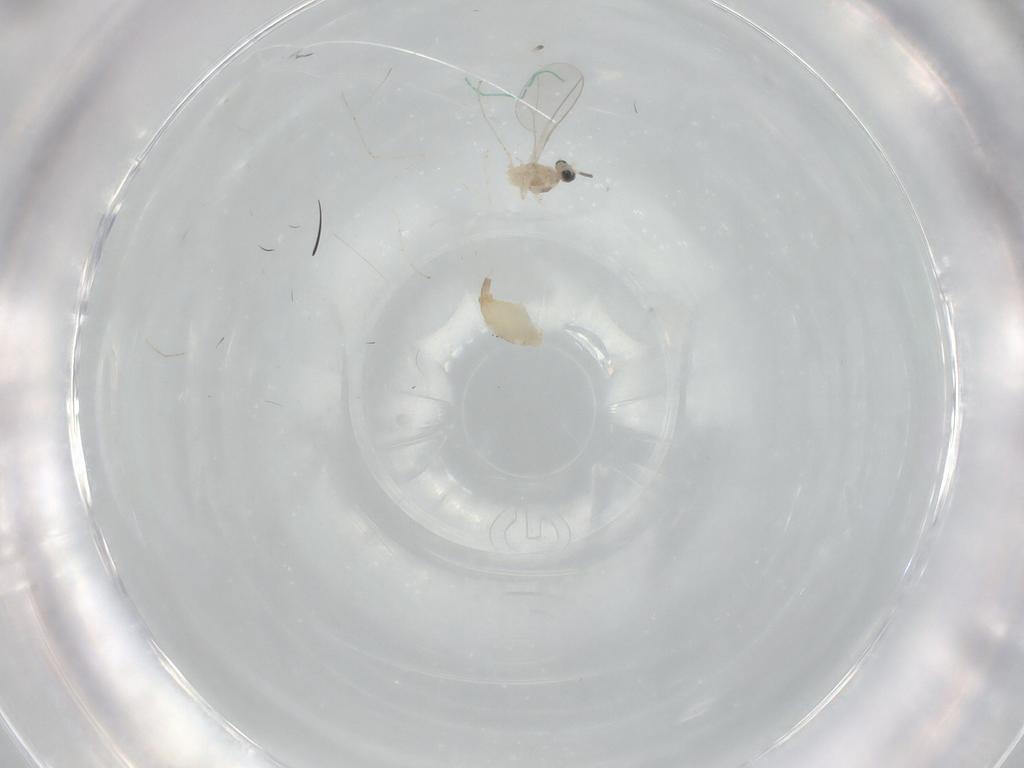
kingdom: Animalia
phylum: Arthropoda
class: Insecta
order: Diptera
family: Cecidomyiidae
